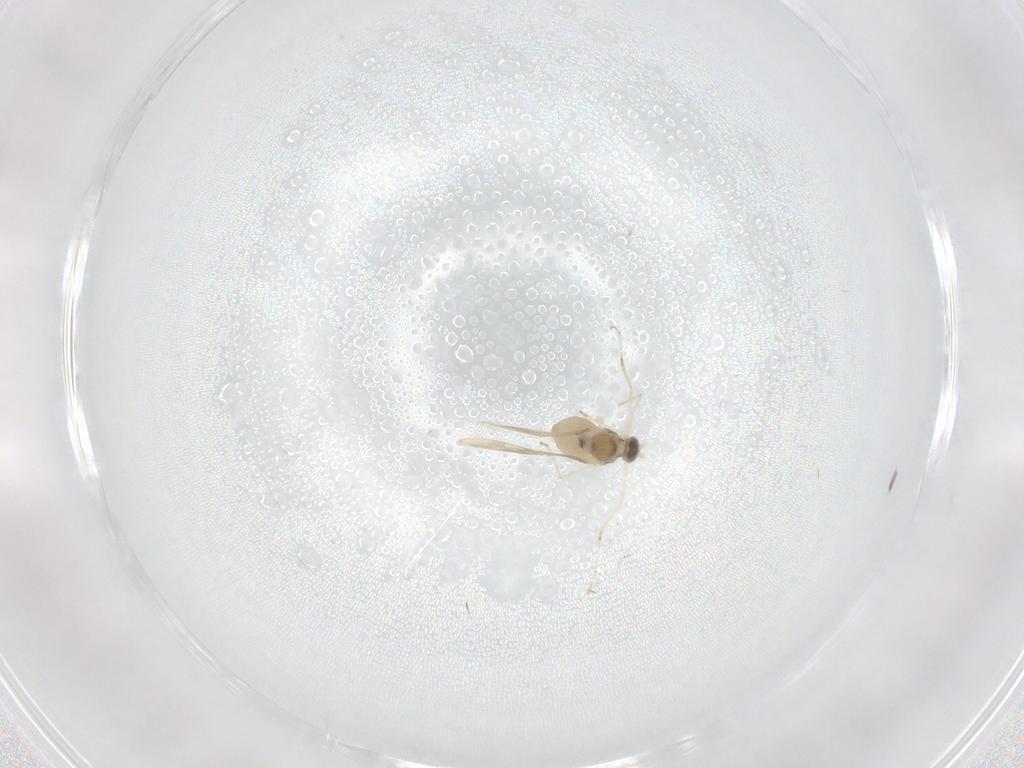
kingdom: Animalia
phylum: Arthropoda
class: Insecta
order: Diptera
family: Cecidomyiidae
